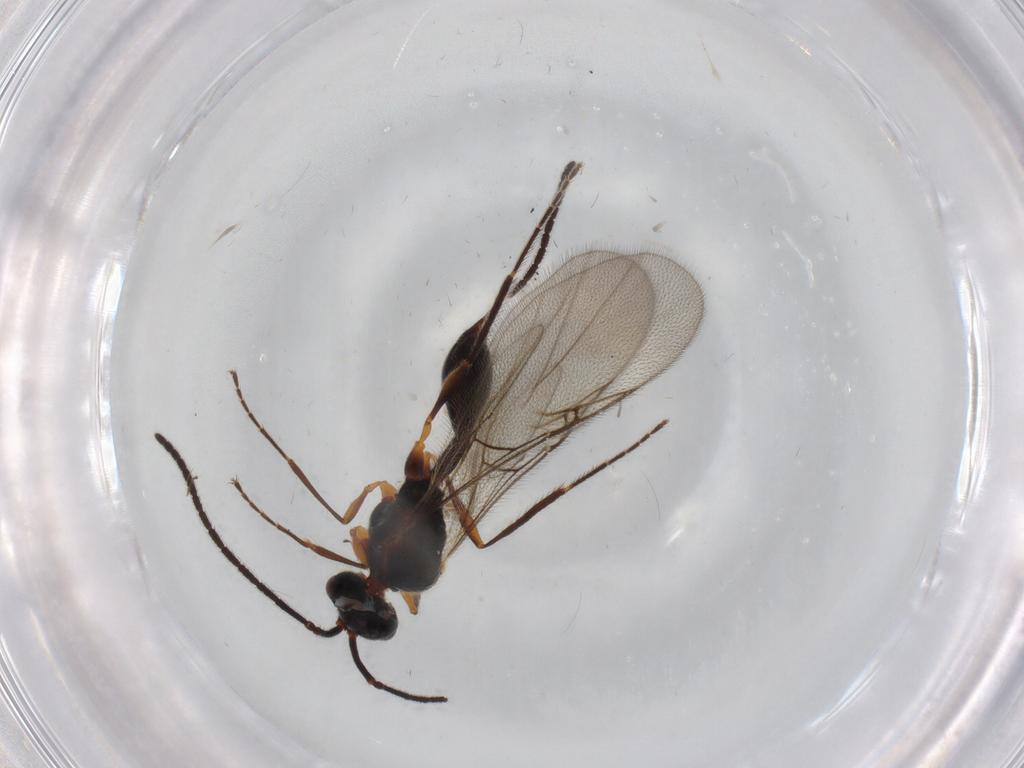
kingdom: Animalia
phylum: Arthropoda
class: Insecta
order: Hymenoptera
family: Diapriidae
